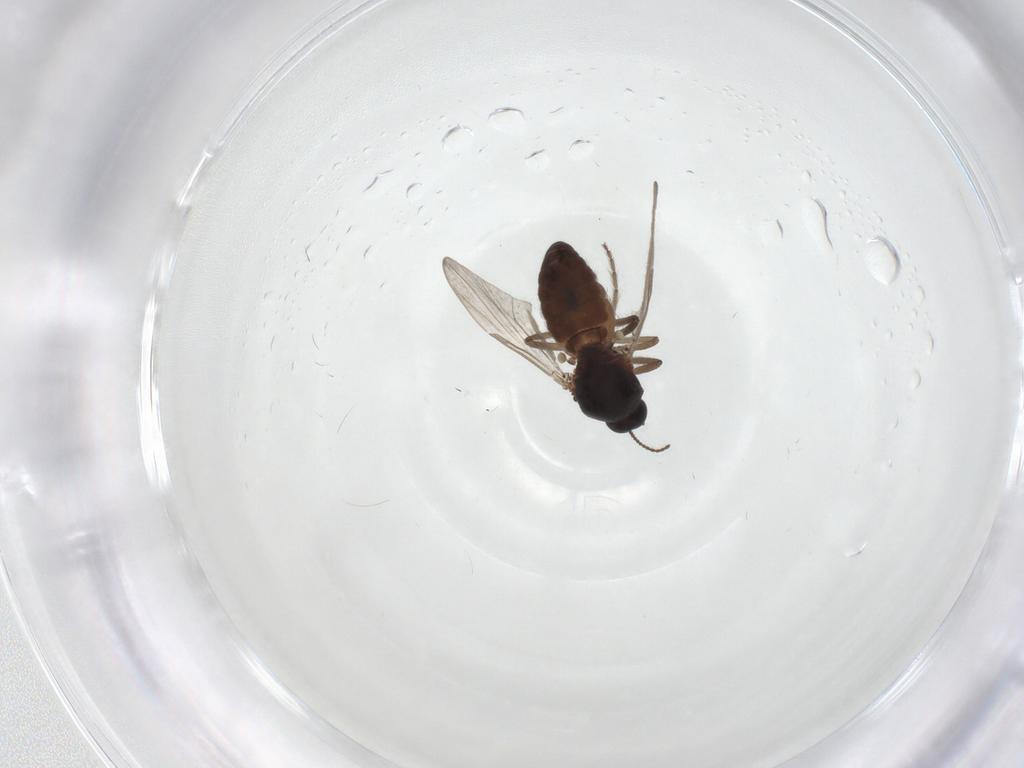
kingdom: Animalia
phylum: Arthropoda
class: Insecta
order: Diptera
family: Ceratopogonidae
